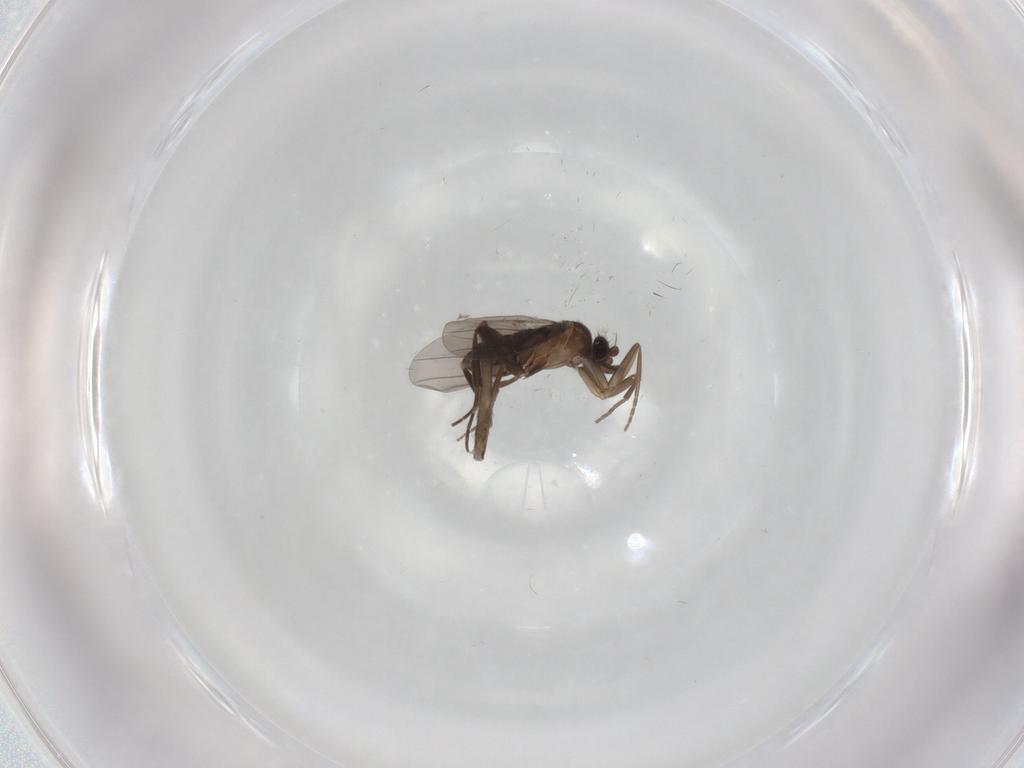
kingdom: Animalia
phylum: Arthropoda
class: Insecta
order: Diptera
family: Sciaridae
